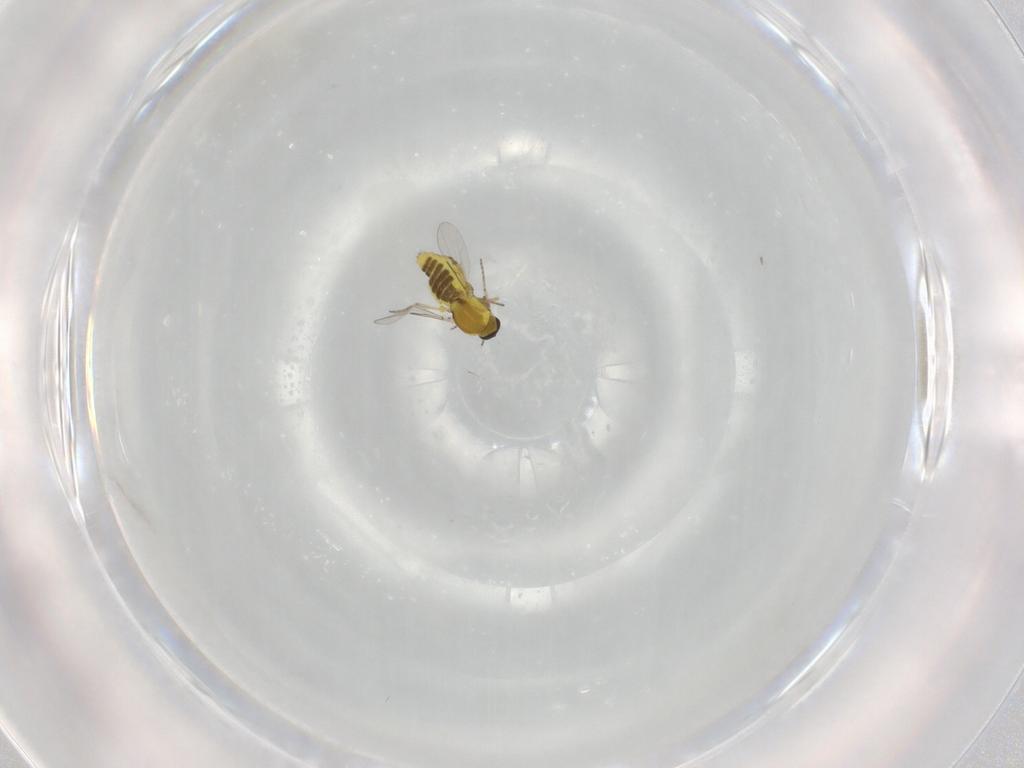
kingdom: Animalia
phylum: Arthropoda
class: Insecta
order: Diptera
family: Ceratopogonidae
